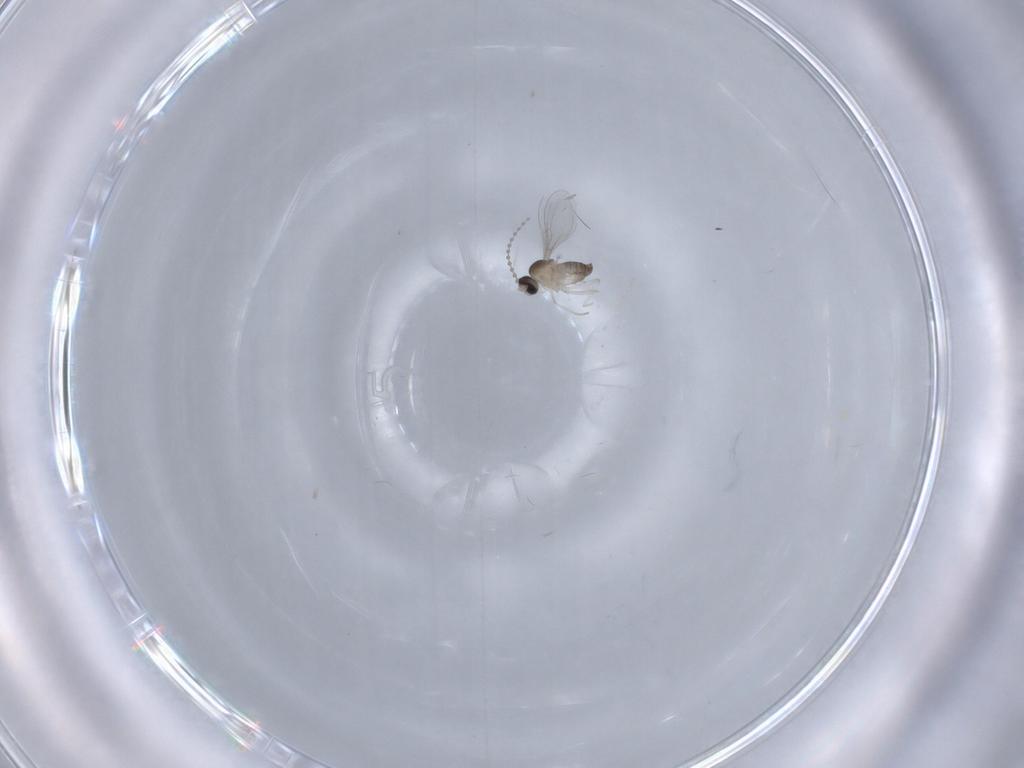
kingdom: Animalia
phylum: Arthropoda
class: Insecta
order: Diptera
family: Cecidomyiidae
